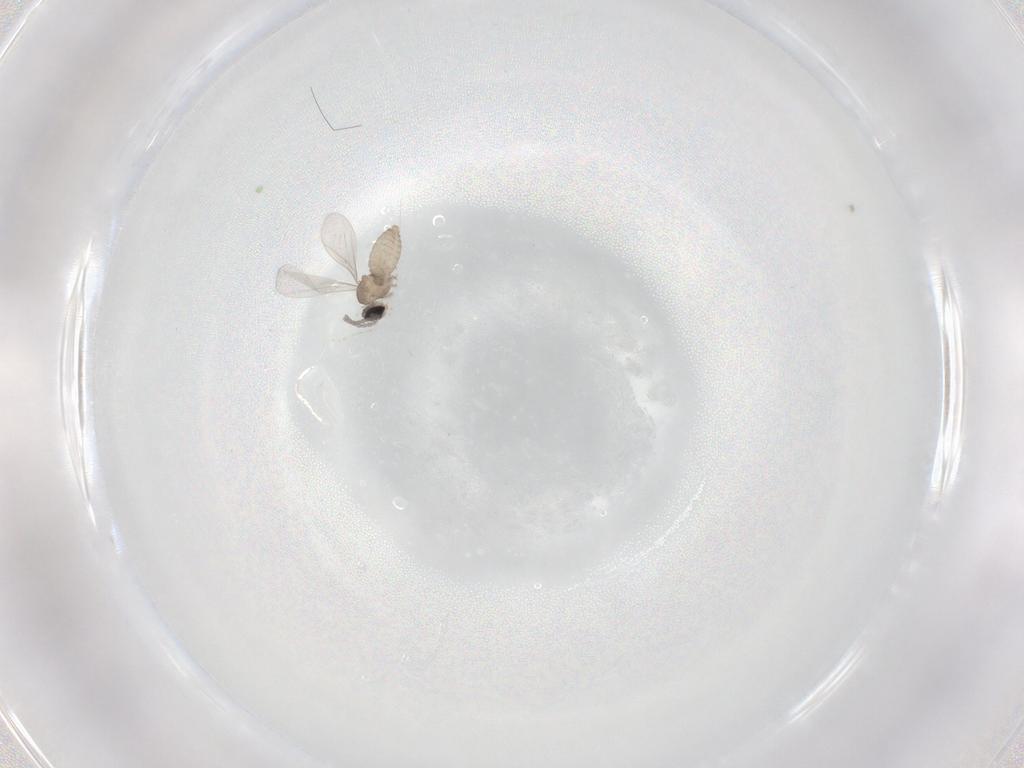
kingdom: Animalia
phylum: Arthropoda
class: Insecta
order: Diptera
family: Cecidomyiidae
